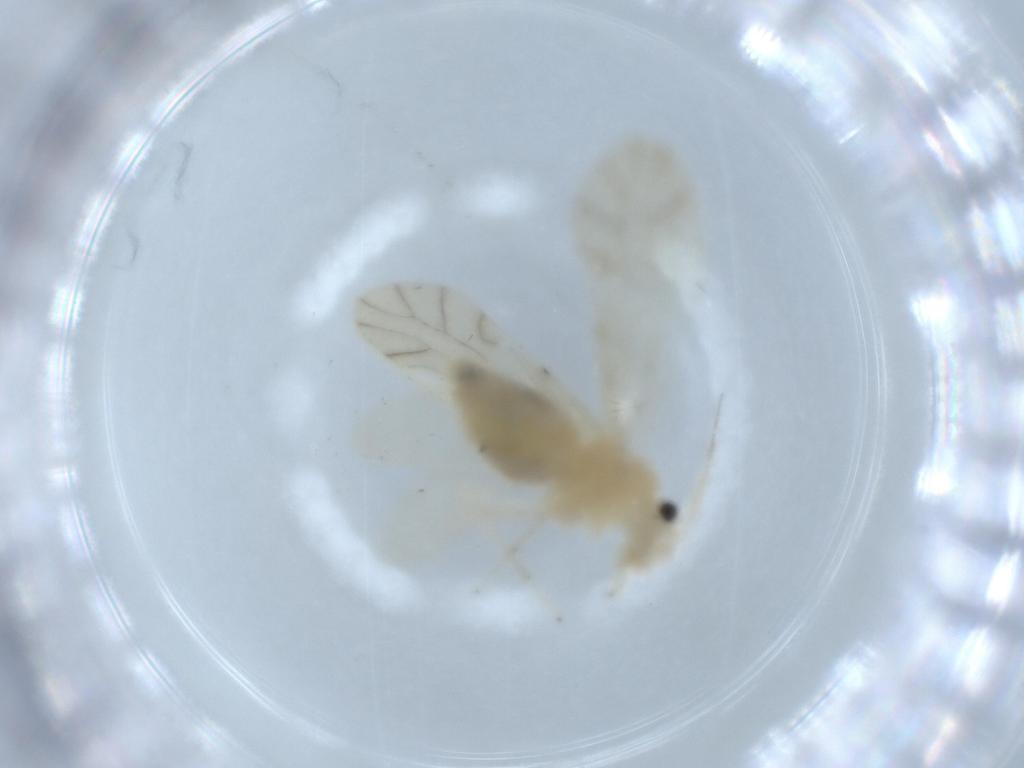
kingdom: Animalia
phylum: Arthropoda
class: Insecta
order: Psocodea
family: Caeciliusidae
